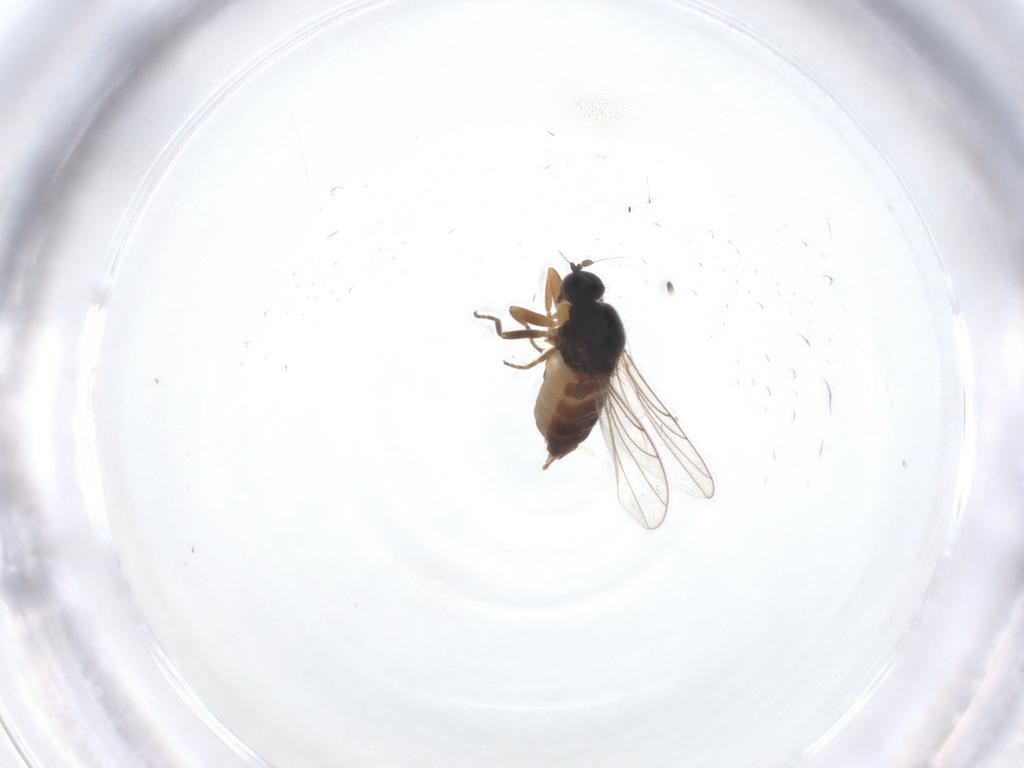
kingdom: Animalia
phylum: Arthropoda
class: Insecta
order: Diptera
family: Hybotidae
